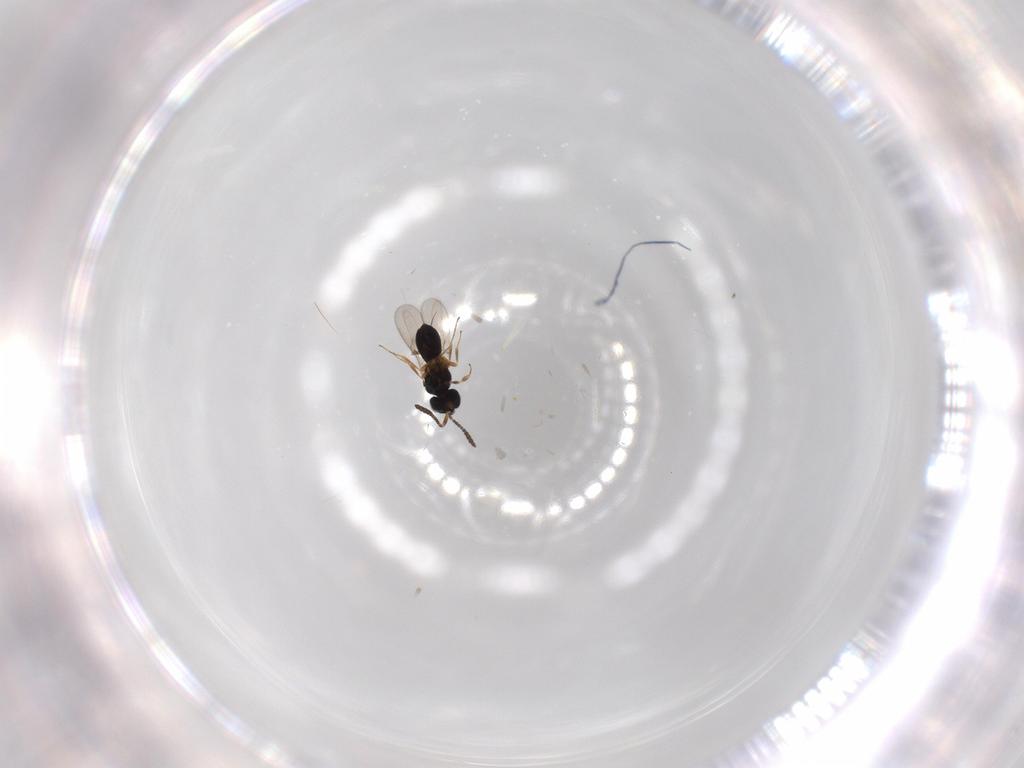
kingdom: Animalia
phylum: Arthropoda
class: Insecta
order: Hymenoptera
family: Scelionidae
